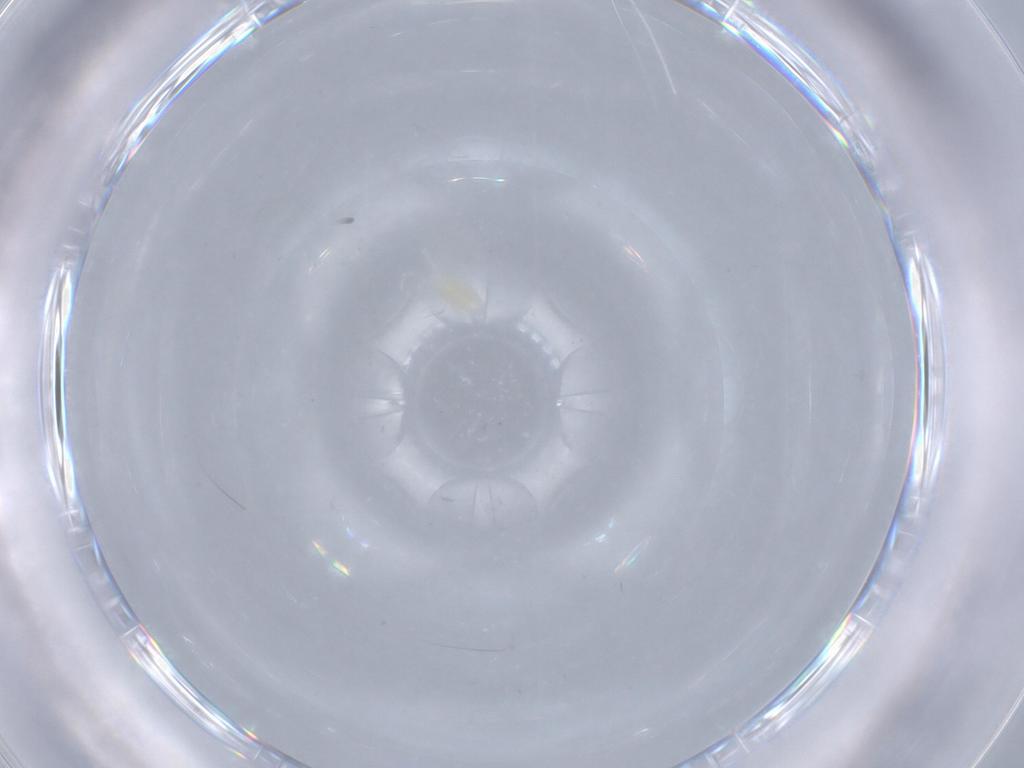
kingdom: Animalia
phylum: Arthropoda
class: Arachnida
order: Trombidiformes
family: Eupodidae
